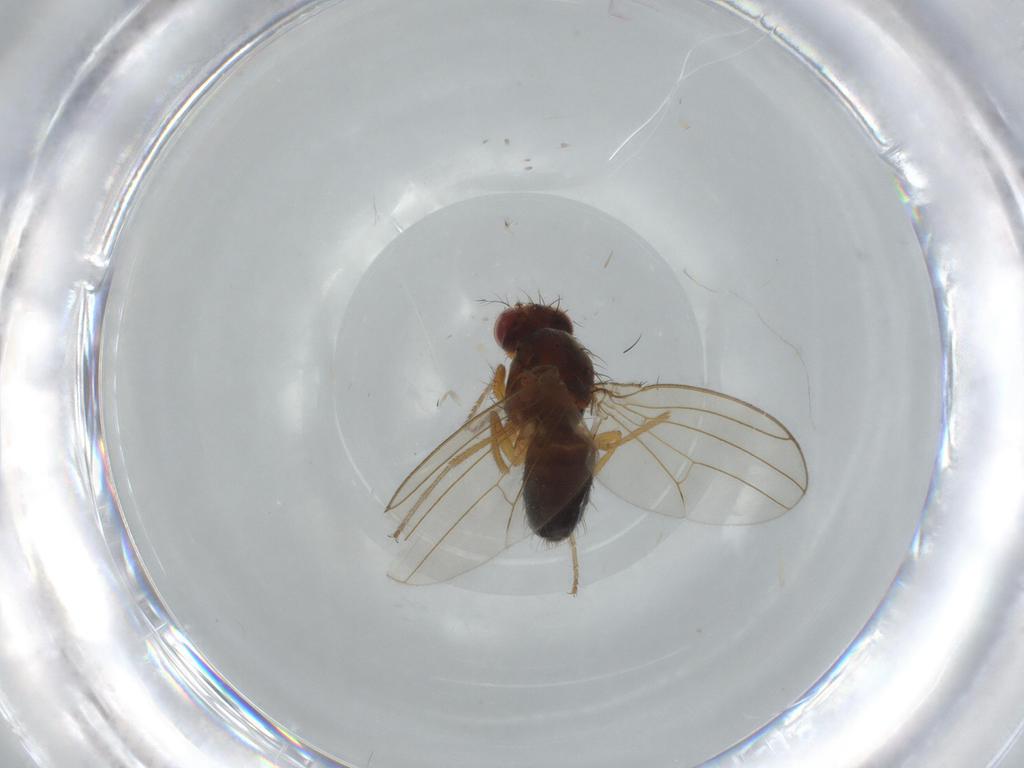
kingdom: Animalia
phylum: Arthropoda
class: Insecta
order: Diptera
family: Drosophilidae
